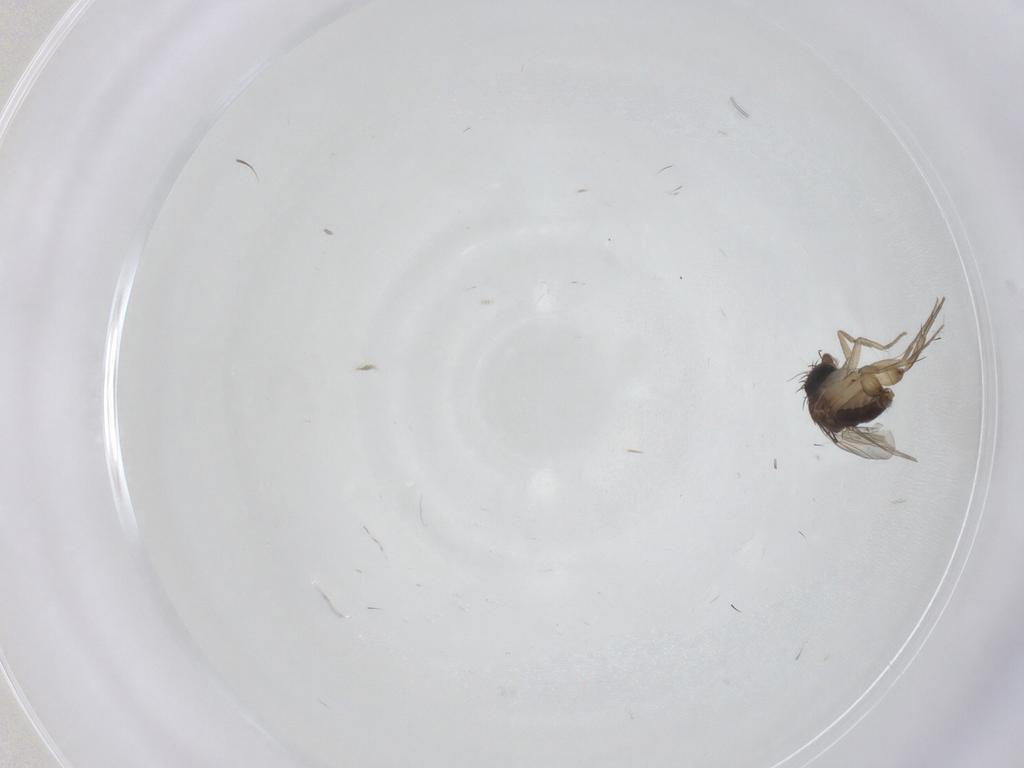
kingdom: Animalia
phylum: Arthropoda
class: Insecta
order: Diptera
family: Phoridae
